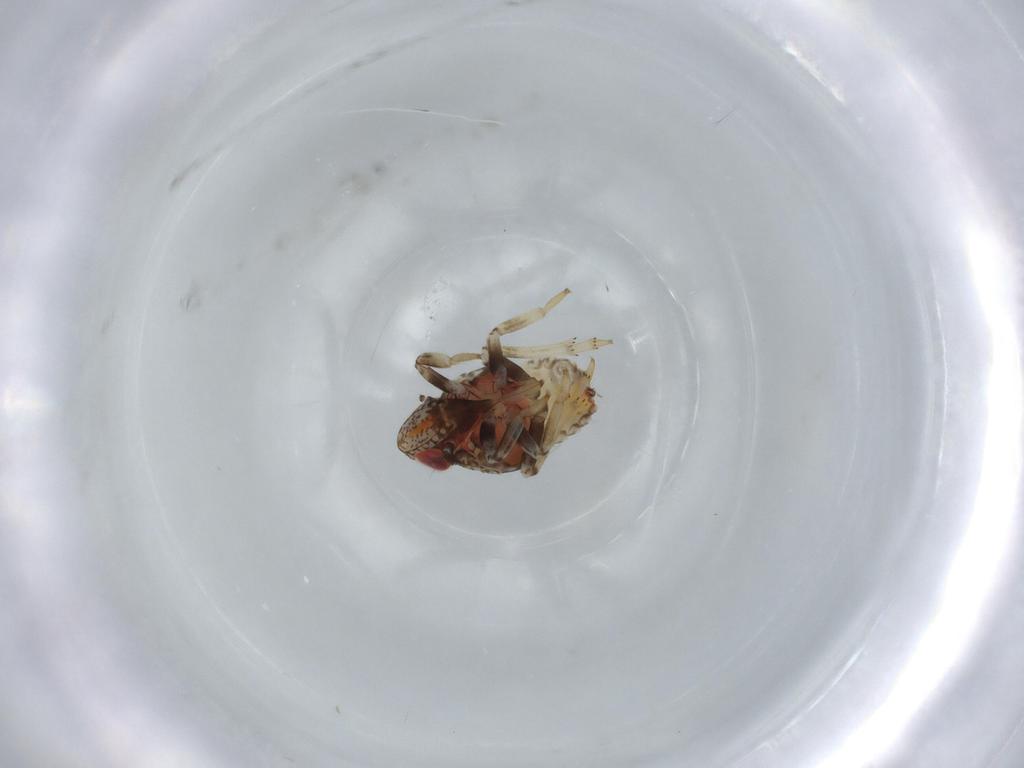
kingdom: Animalia
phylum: Arthropoda
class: Insecta
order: Hemiptera
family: Issidae
